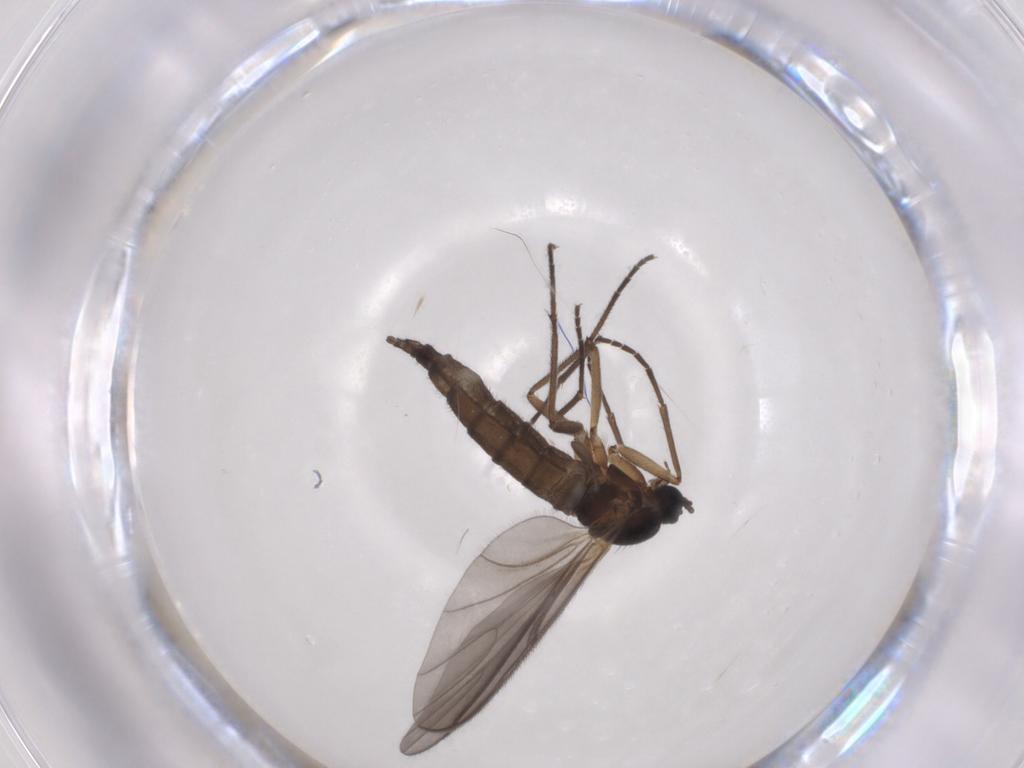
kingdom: Animalia
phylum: Arthropoda
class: Insecta
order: Diptera
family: Sciaridae
